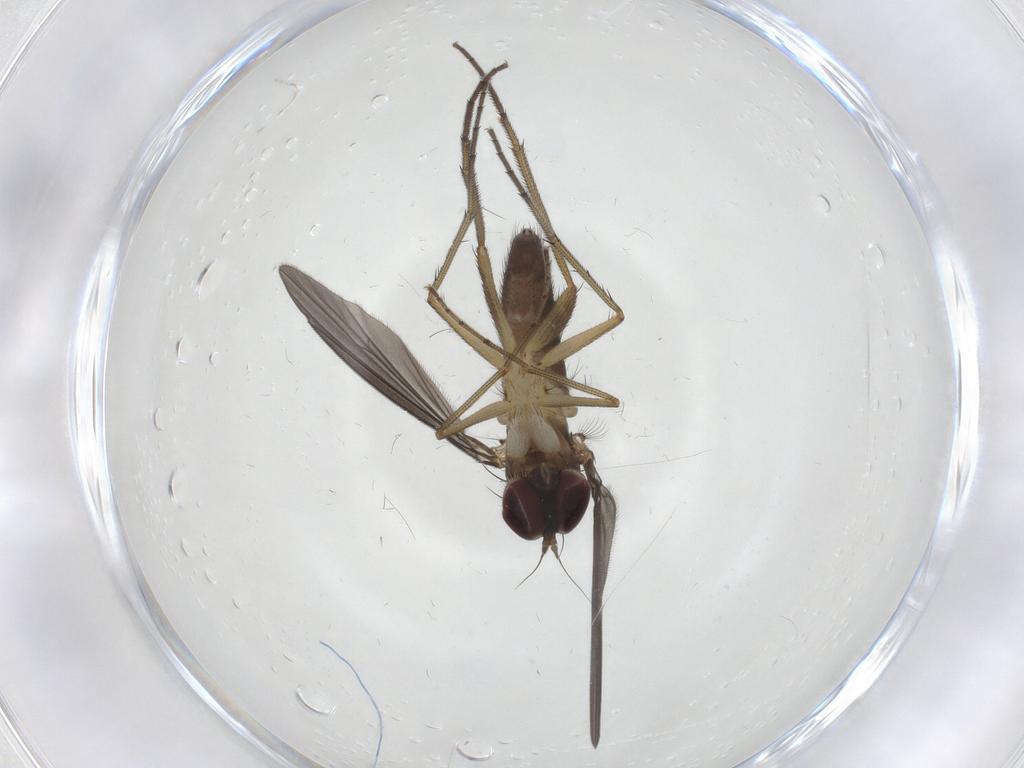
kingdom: Animalia
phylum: Arthropoda
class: Insecta
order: Diptera
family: Dolichopodidae
